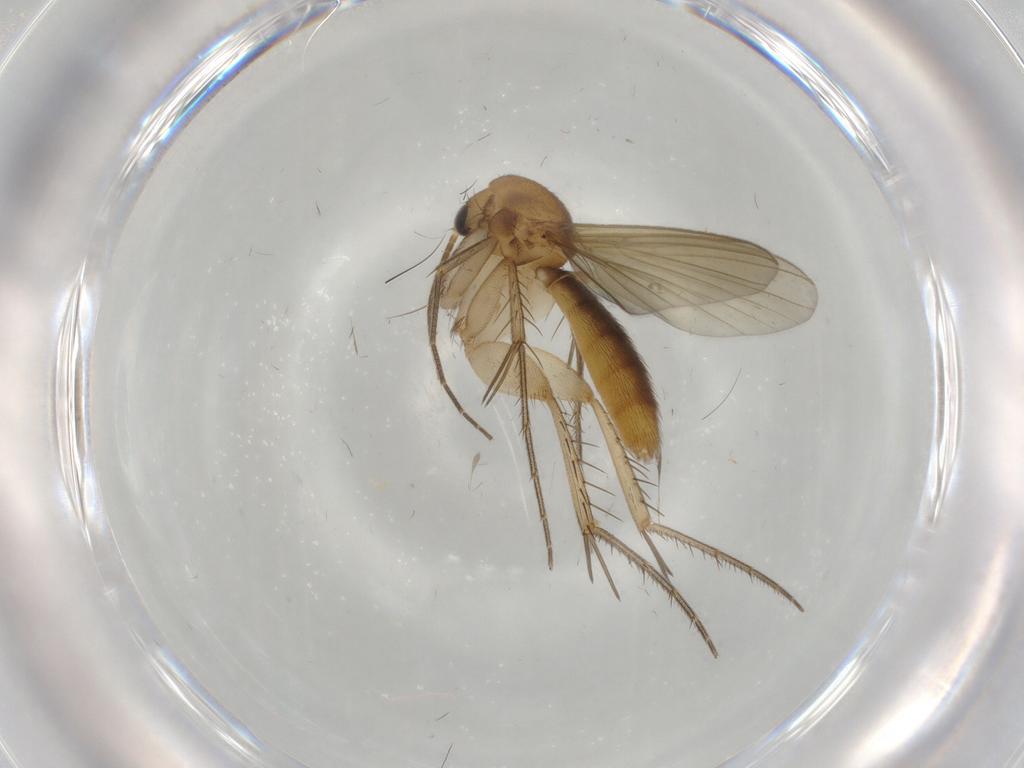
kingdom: Animalia
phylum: Arthropoda
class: Insecta
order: Diptera
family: Mycetophilidae
